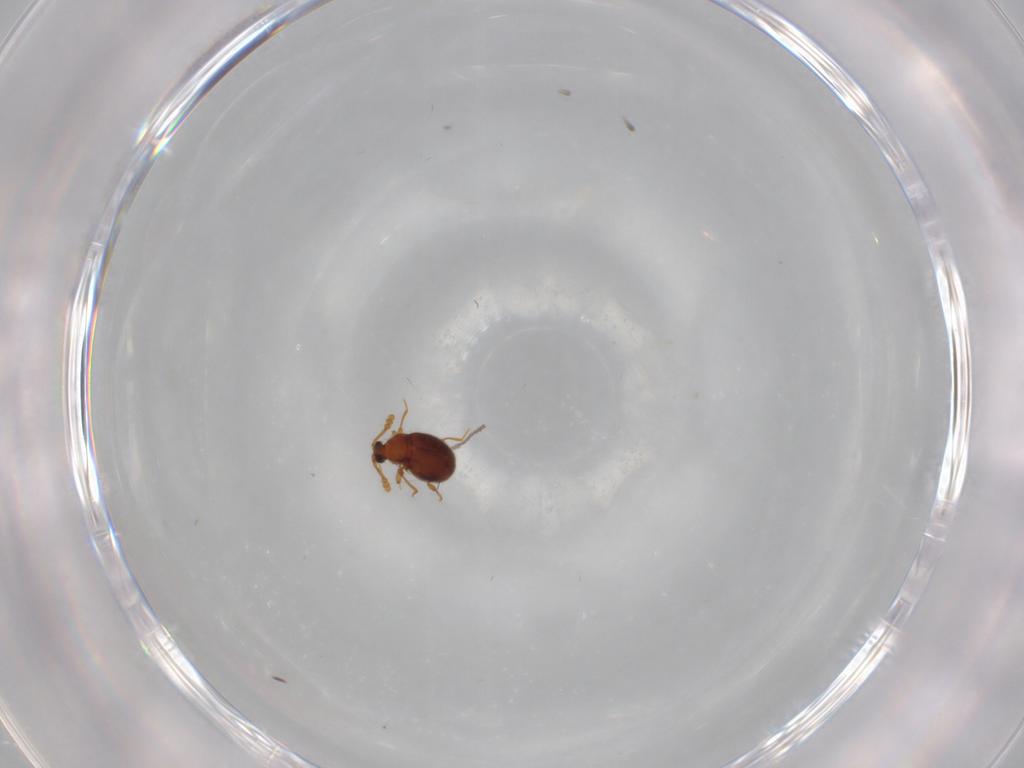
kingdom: Animalia
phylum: Arthropoda
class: Insecta
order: Coleoptera
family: Staphylinidae
